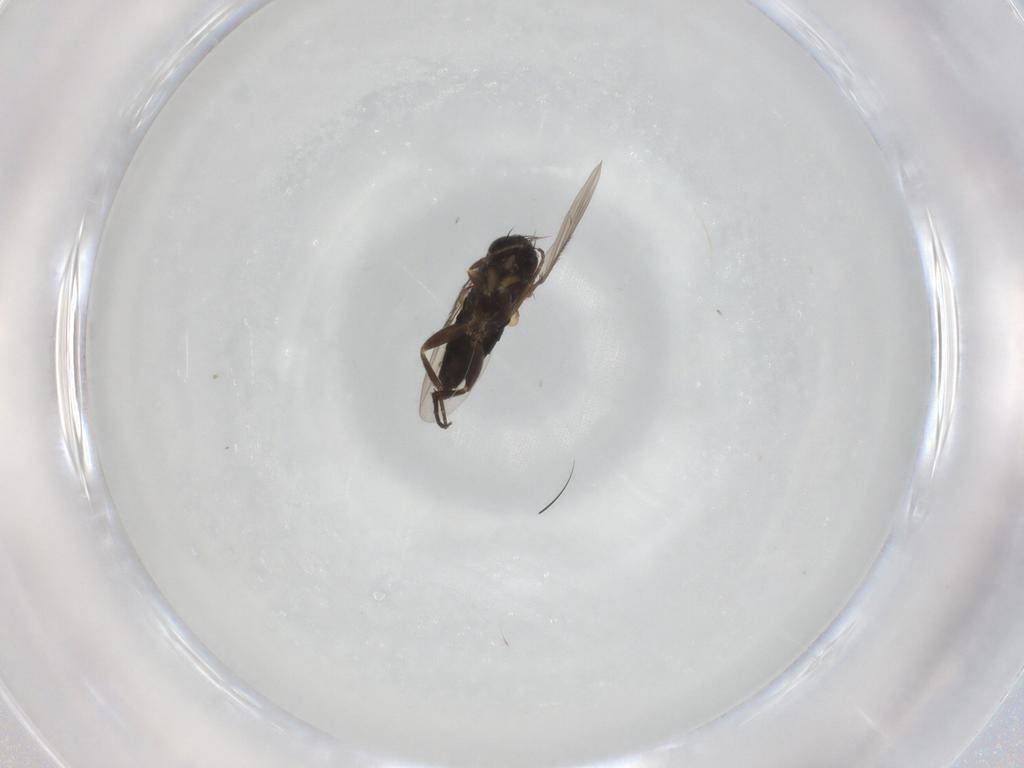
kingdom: Animalia
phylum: Arthropoda
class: Insecta
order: Diptera
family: Phoridae
